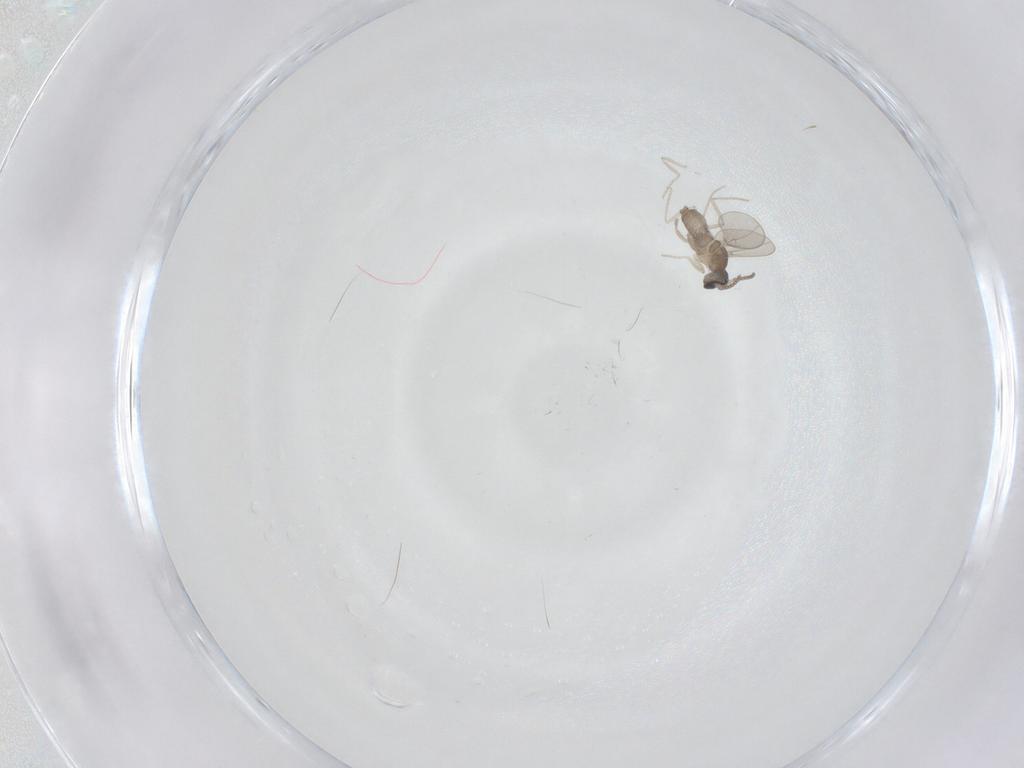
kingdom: Animalia
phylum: Arthropoda
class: Insecta
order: Diptera
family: Cecidomyiidae
